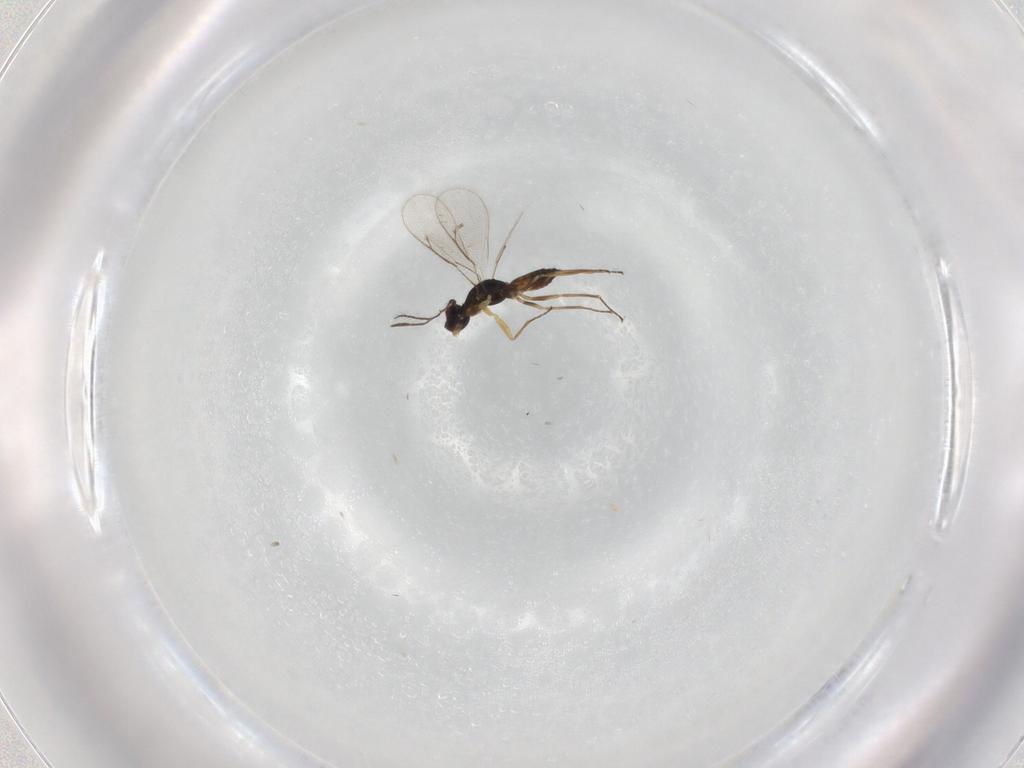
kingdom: Animalia
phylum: Arthropoda
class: Insecta
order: Hymenoptera
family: Eulophidae
